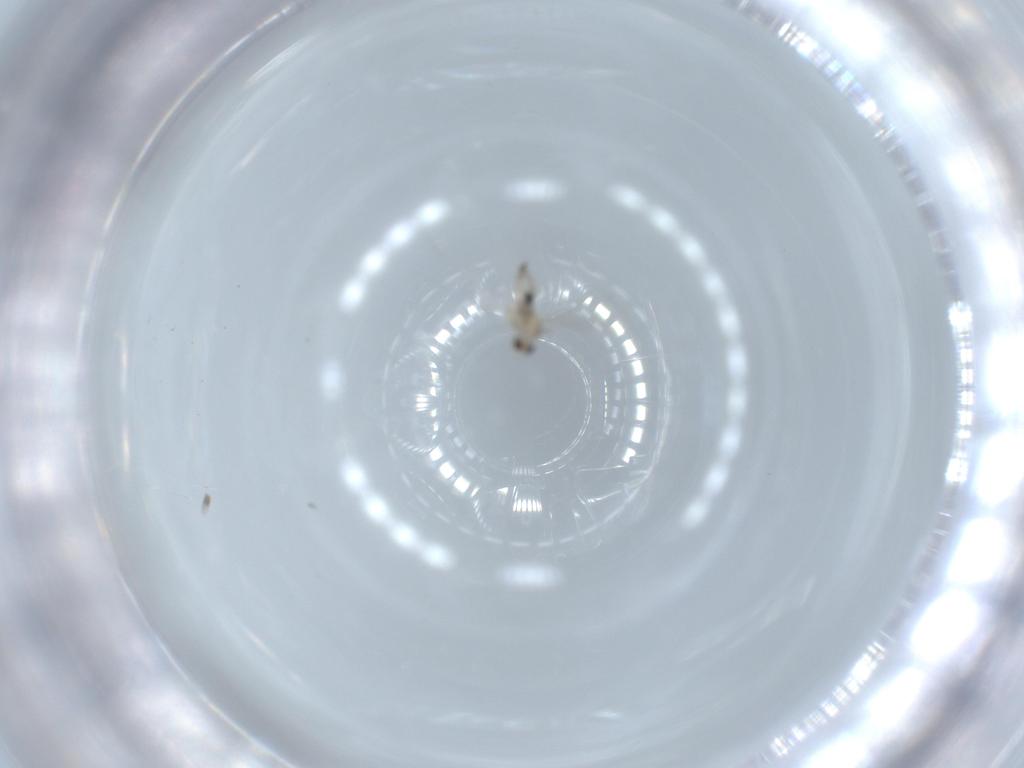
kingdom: Animalia
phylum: Arthropoda
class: Insecta
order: Diptera
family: Cecidomyiidae
